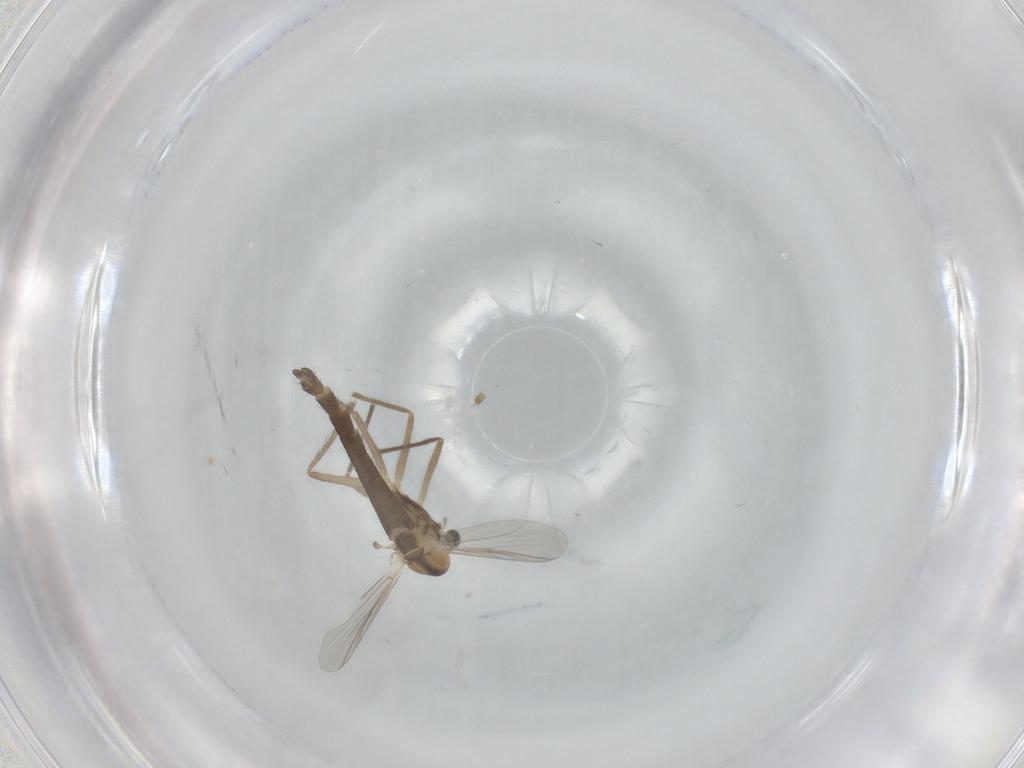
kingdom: Animalia
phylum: Arthropoda
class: Insecta
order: Diptera
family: Chironomidae
